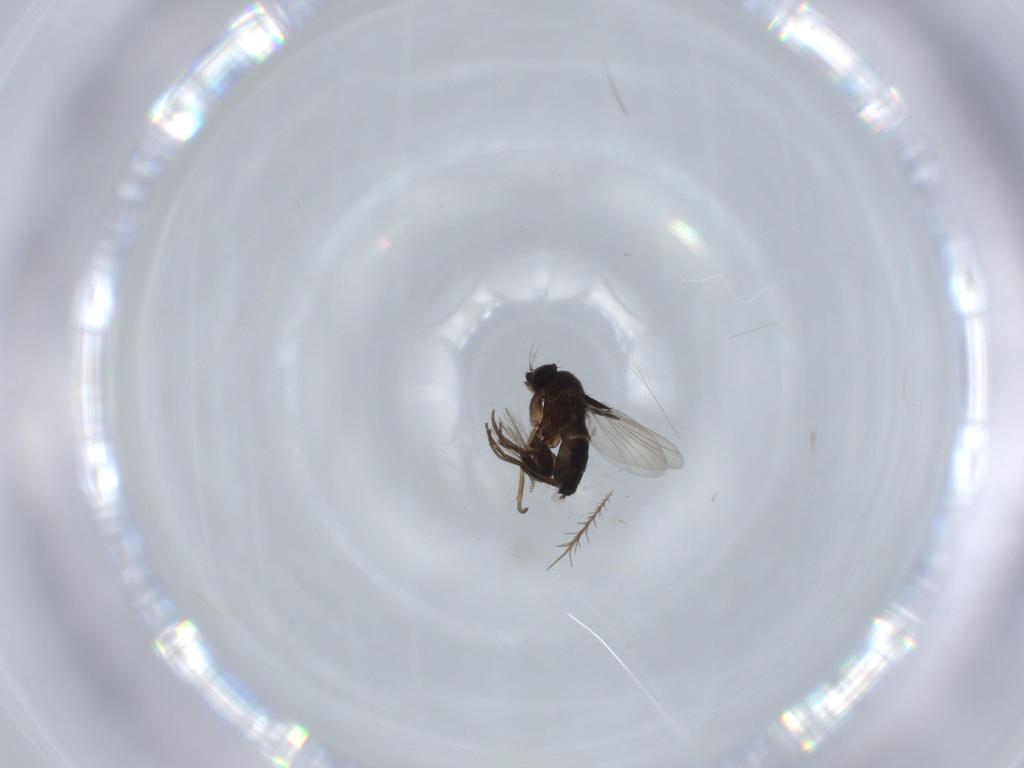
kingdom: Animalia
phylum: Arthropoda
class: Insecta
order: Diptera
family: Chironomidae
